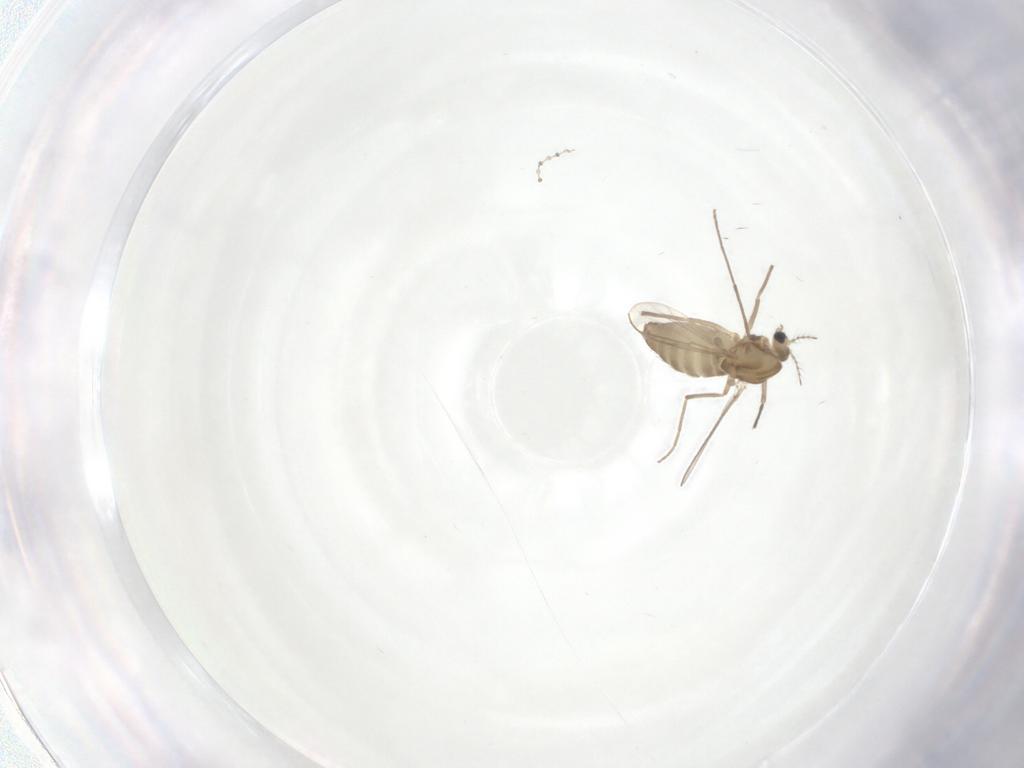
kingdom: Animalia
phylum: Arthropoda
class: Insecta
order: Diptera
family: Chironomidae
